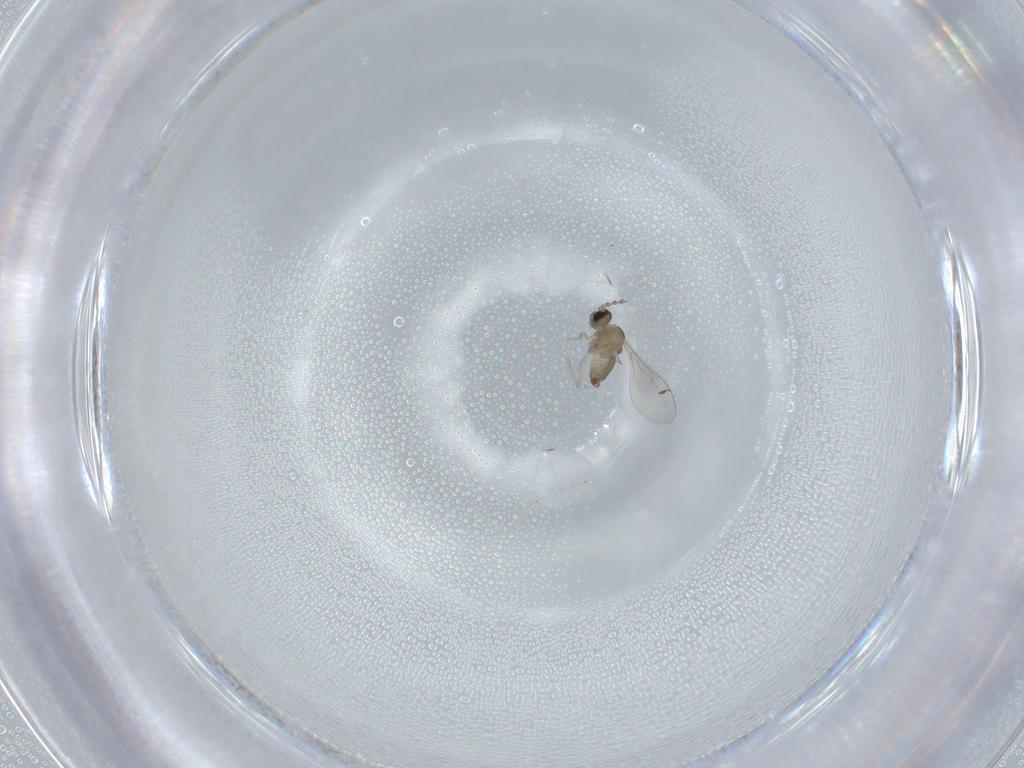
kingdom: Animalia
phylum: Arthropoda
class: Insecta
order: Diptera
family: Cecidomyiidae
